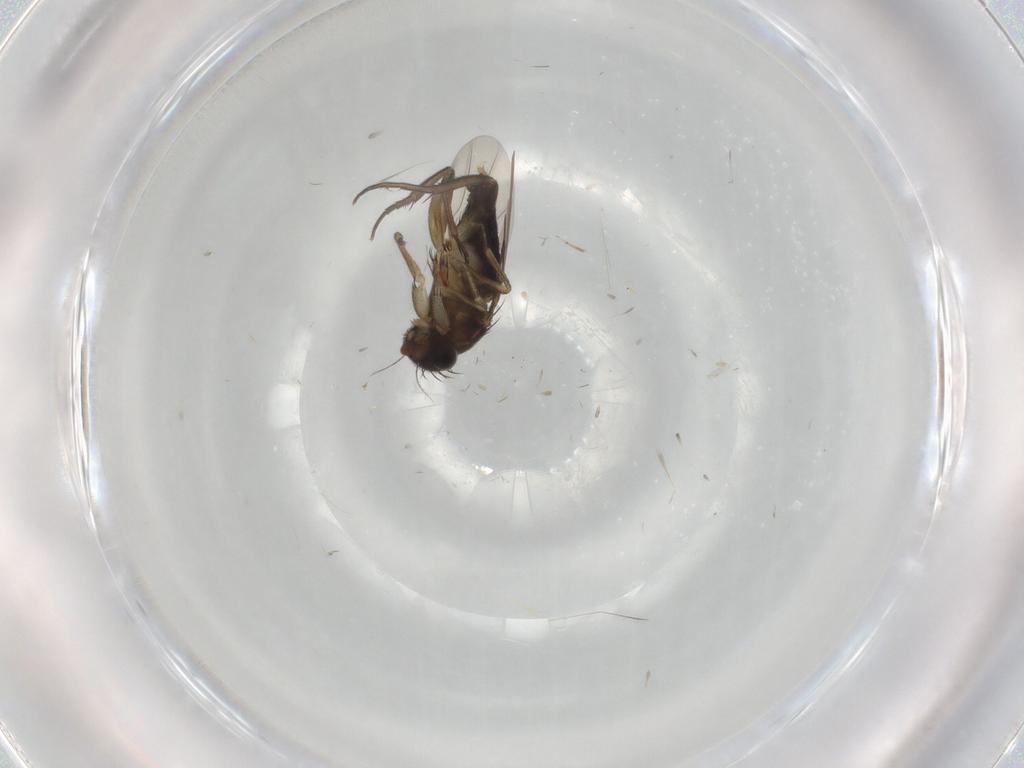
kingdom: Animalia
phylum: Arthropoda
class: Insecta
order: Diptera
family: Phoridae
